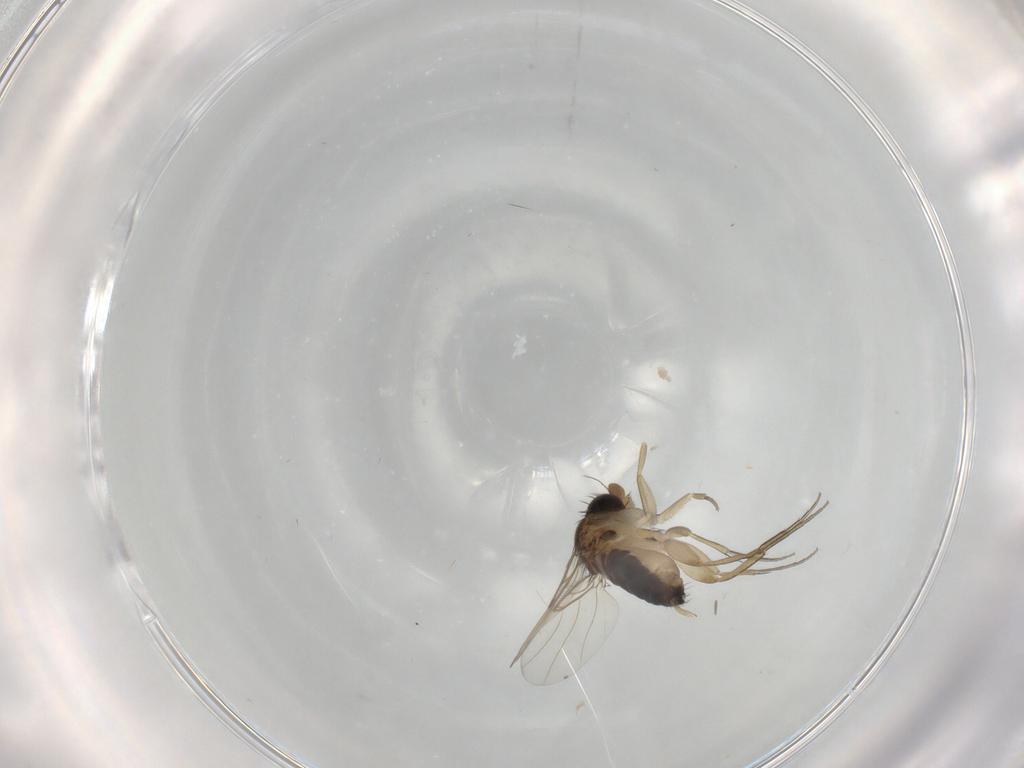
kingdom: Animalia
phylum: Arthropoda
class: Insecta
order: Diptera
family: Phoridae
